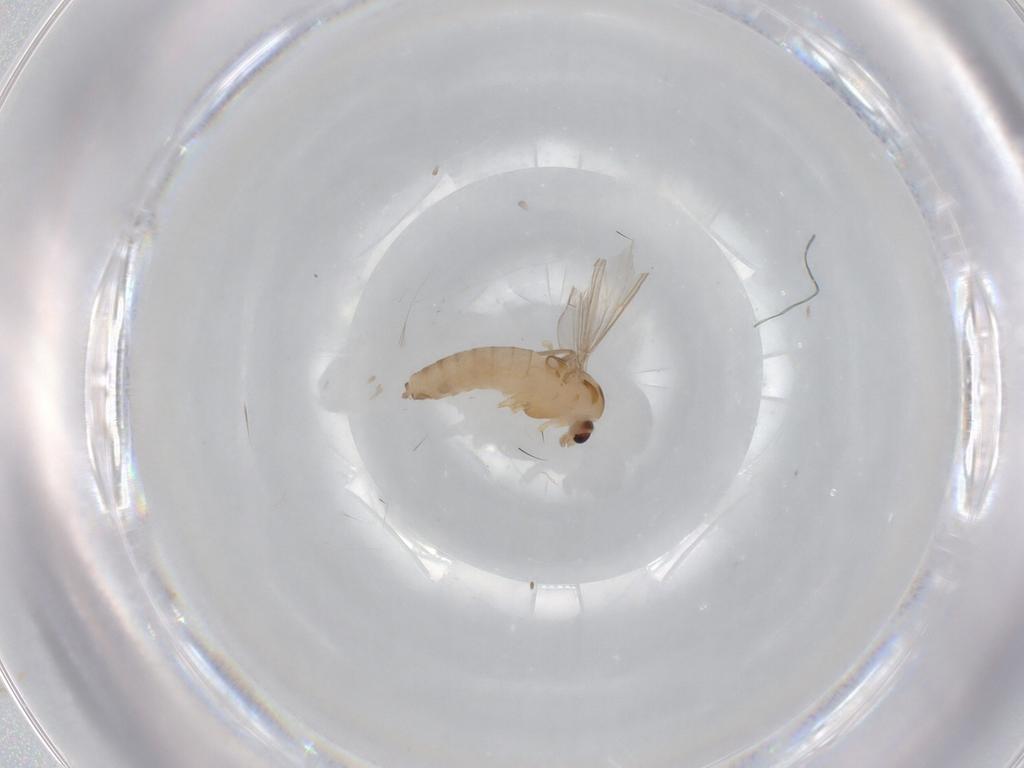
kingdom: Animalia
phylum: Arthropoda
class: Insecta
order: Diptera
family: Chironomidae
